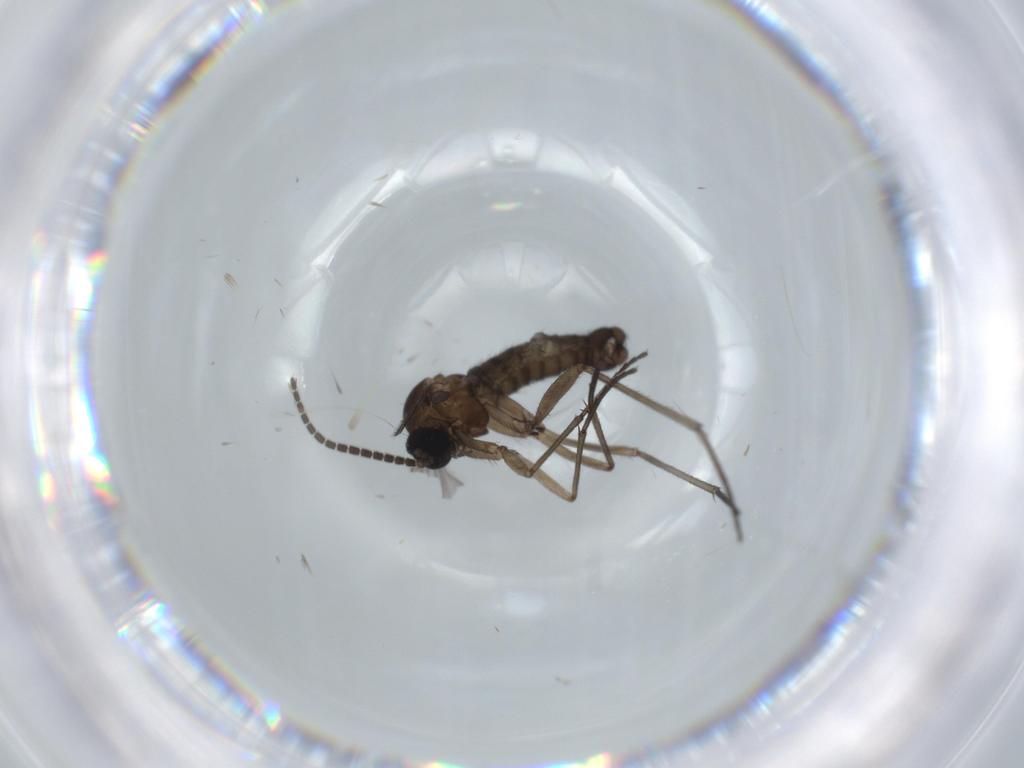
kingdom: Animalia
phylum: Arthropoda
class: Insecta
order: Diptera
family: Sciaridae
